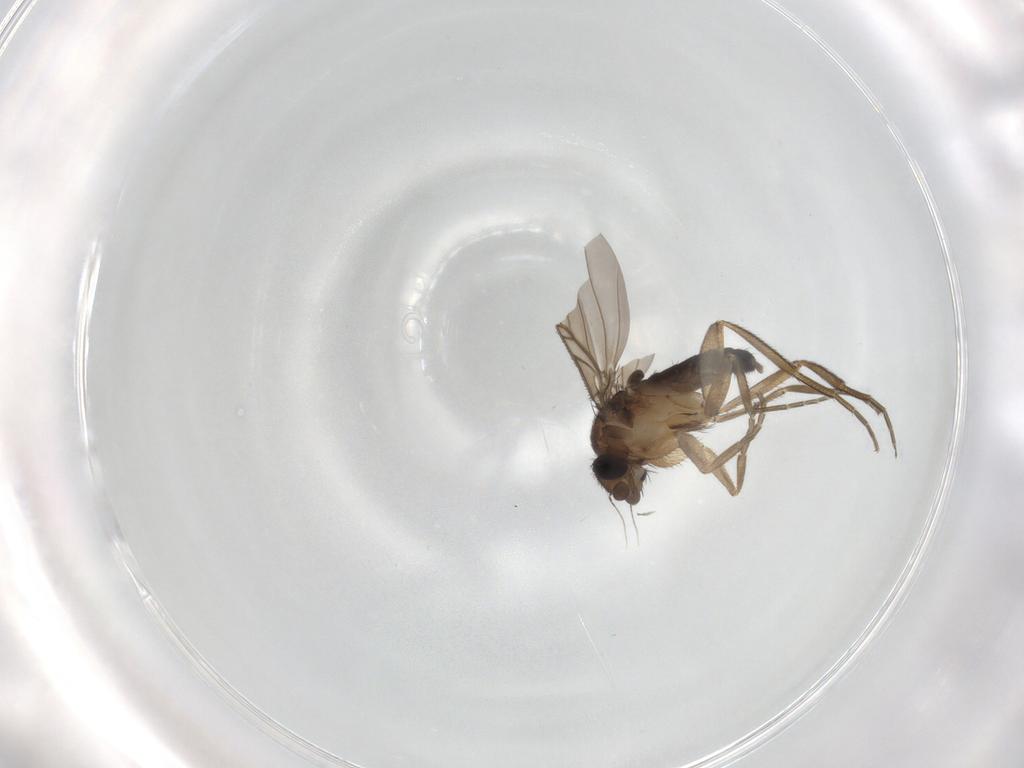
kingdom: Animalia
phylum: Arthropoda
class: Insecta
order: Diptera
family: Phoridae
